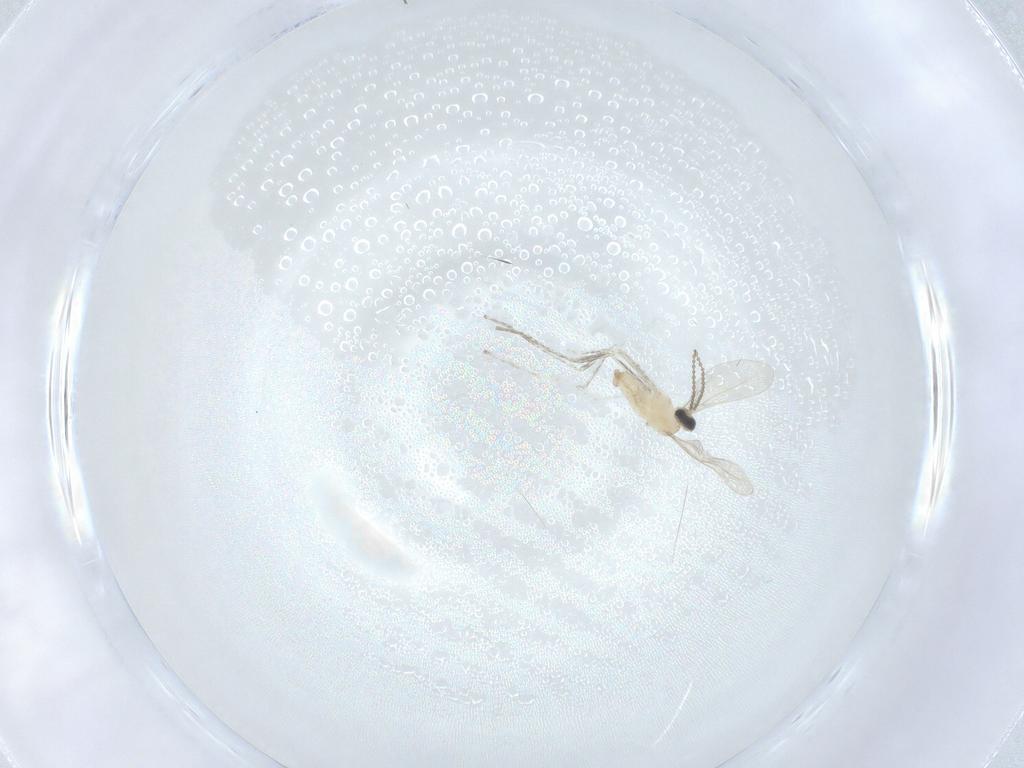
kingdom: Animalia
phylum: Arthropoda
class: Insecta
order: Diptera
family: Cecidomyiidae
